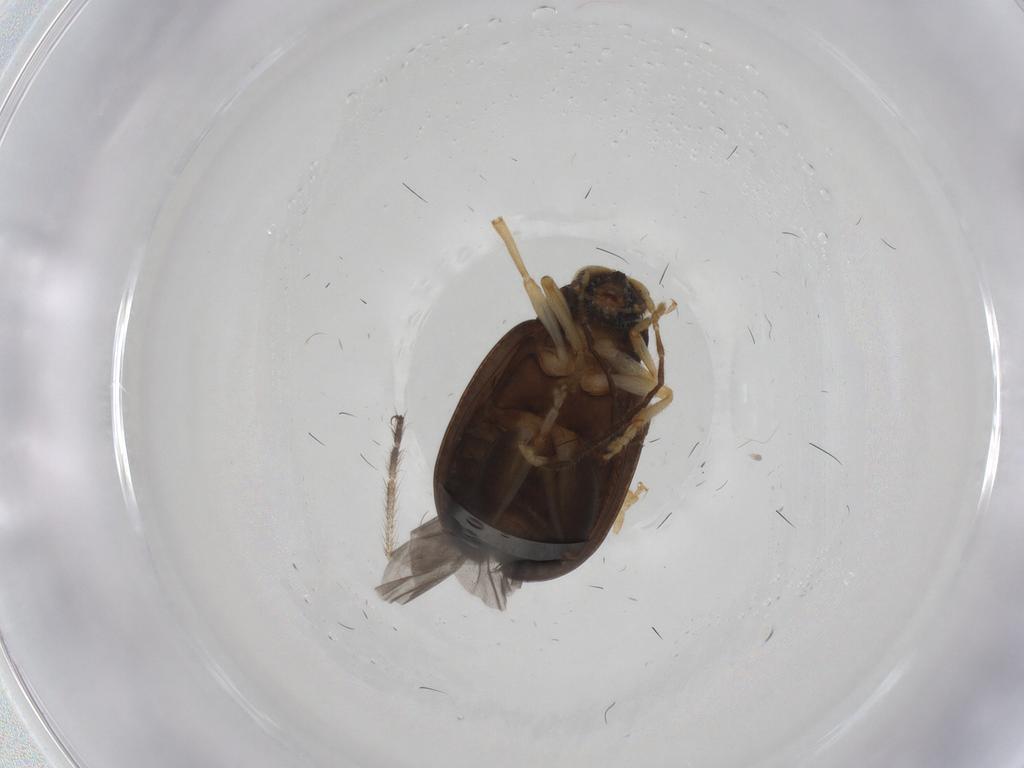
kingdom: Animalia
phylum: Arthropoda
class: Insecta
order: Coleoptera
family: Chrysomelidae
